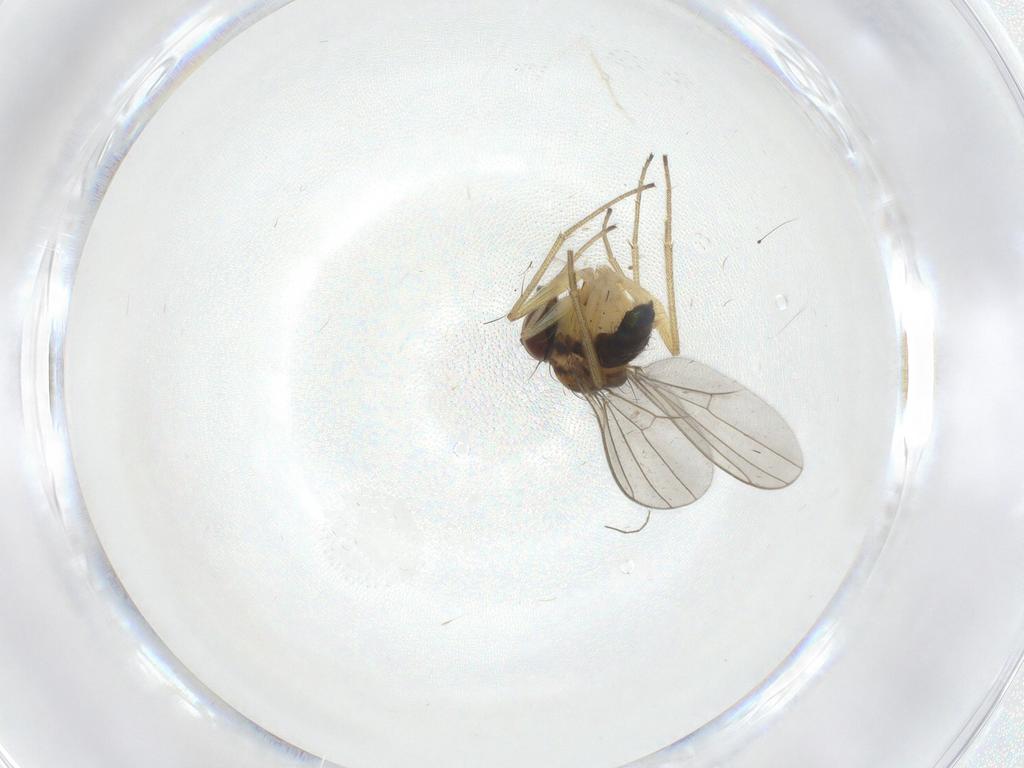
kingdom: Animalia
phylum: Arthropoda
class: Insecta
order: Diptera
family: Dolichopodidae
